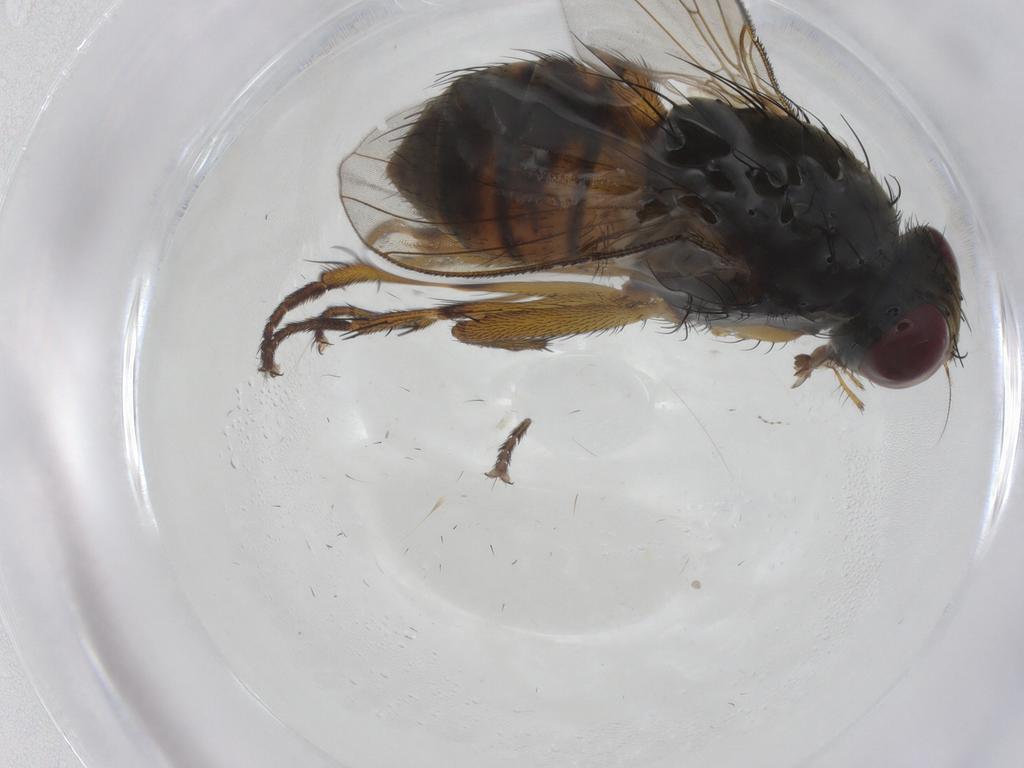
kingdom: Animalia
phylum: Arthropoda
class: Insecta
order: Diptera
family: Muscidae
